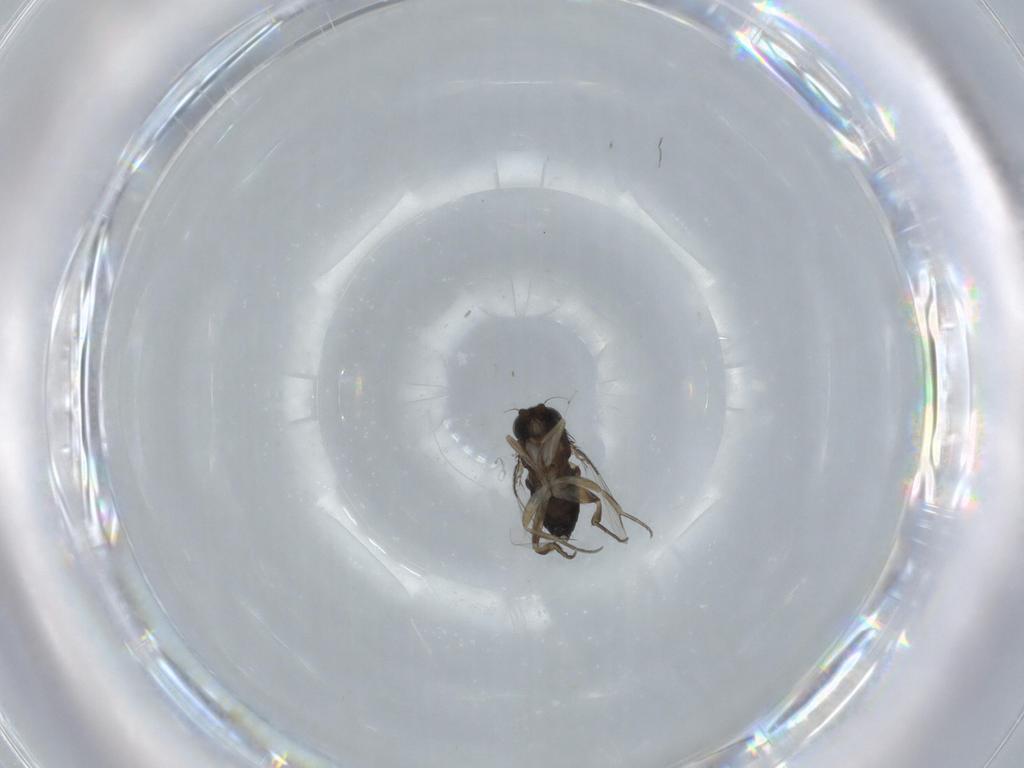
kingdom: Animalia
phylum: Arthropoda
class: Insecta
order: Diptera
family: Phoridae
